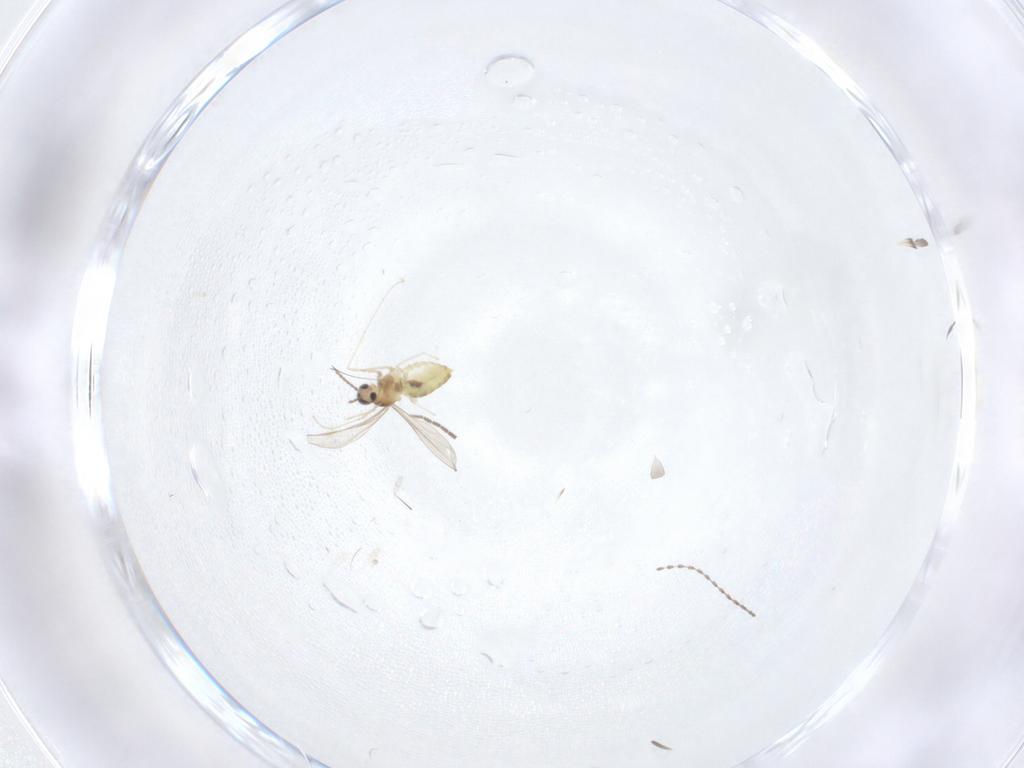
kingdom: Animalia
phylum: Arthropoda
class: Insecta
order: Diptera
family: Cecidomyiidae
